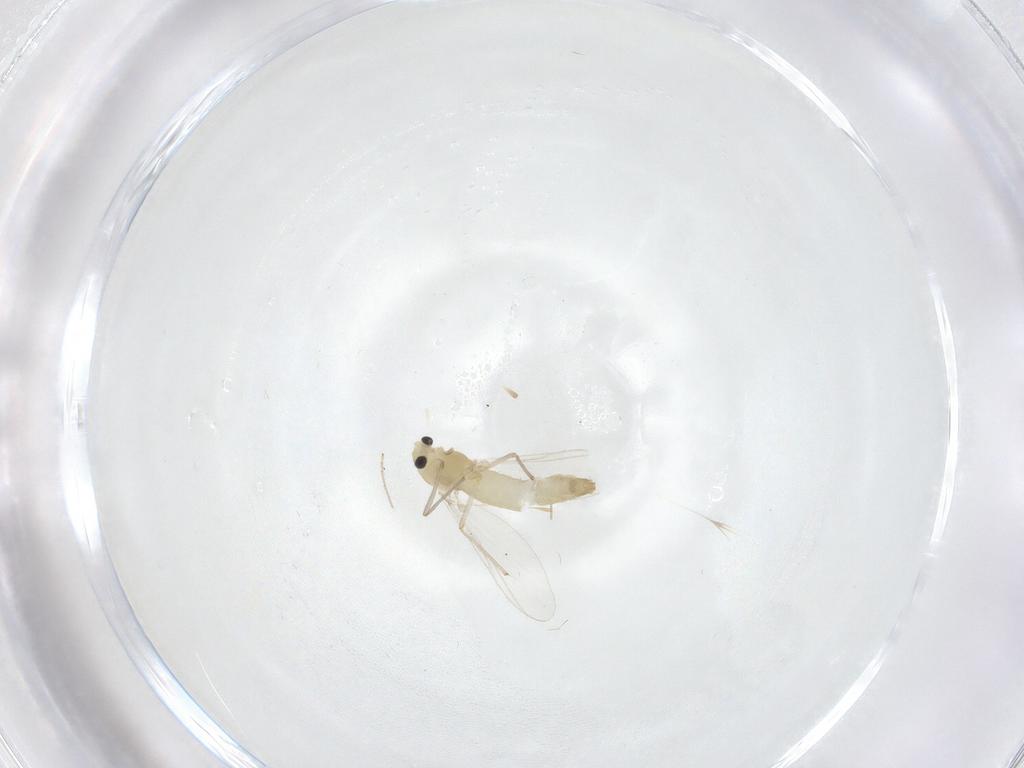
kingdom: Animalia
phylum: Arthropoda
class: Insecta
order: Diptera
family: Chironomidae
